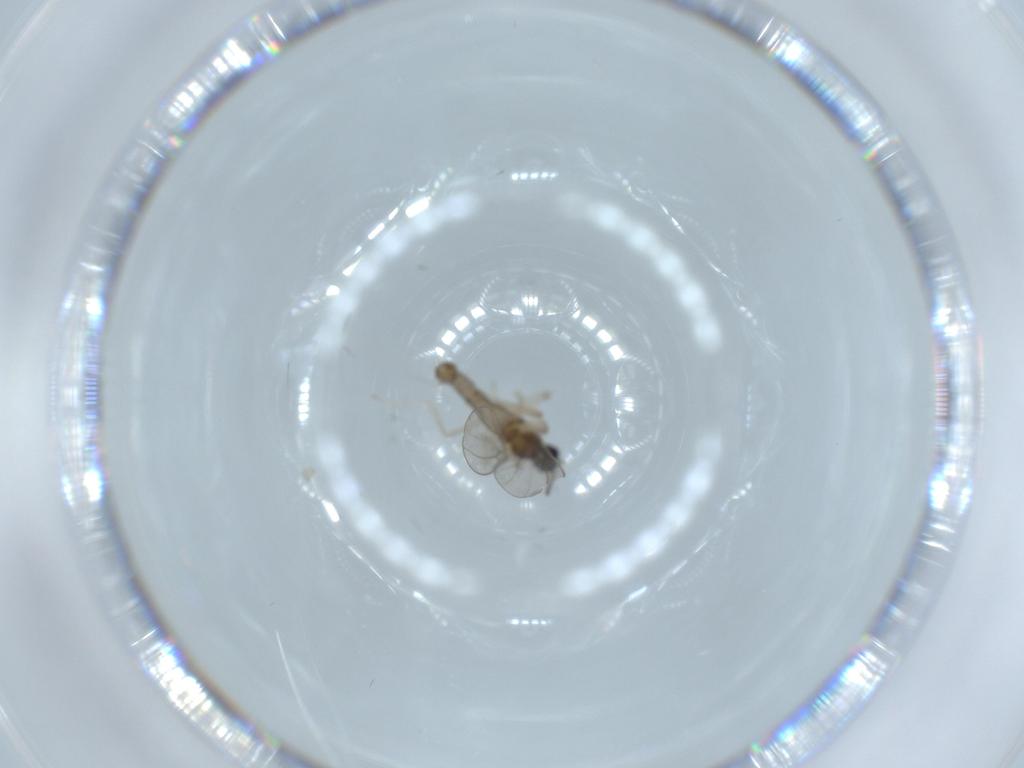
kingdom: Animalia
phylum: Arthropoda
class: Insecta
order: Diptera
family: Cecidomyiidae
